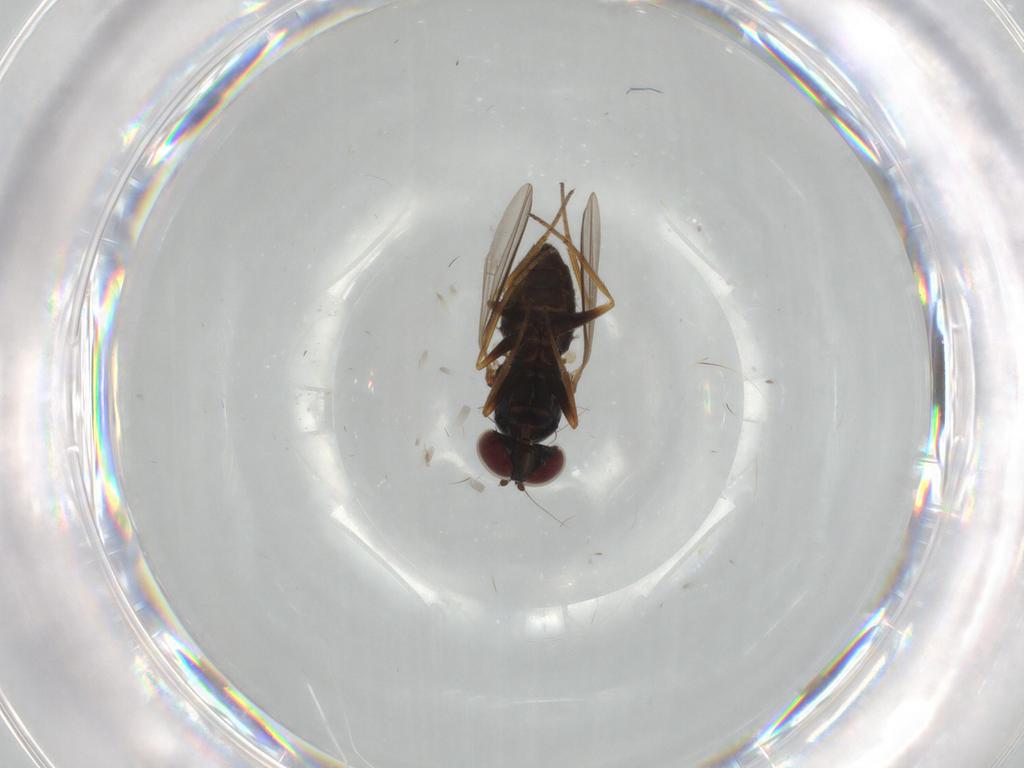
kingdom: Animalia
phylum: Arthropoda
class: Insecta
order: Diptera
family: Dolichopodidae
